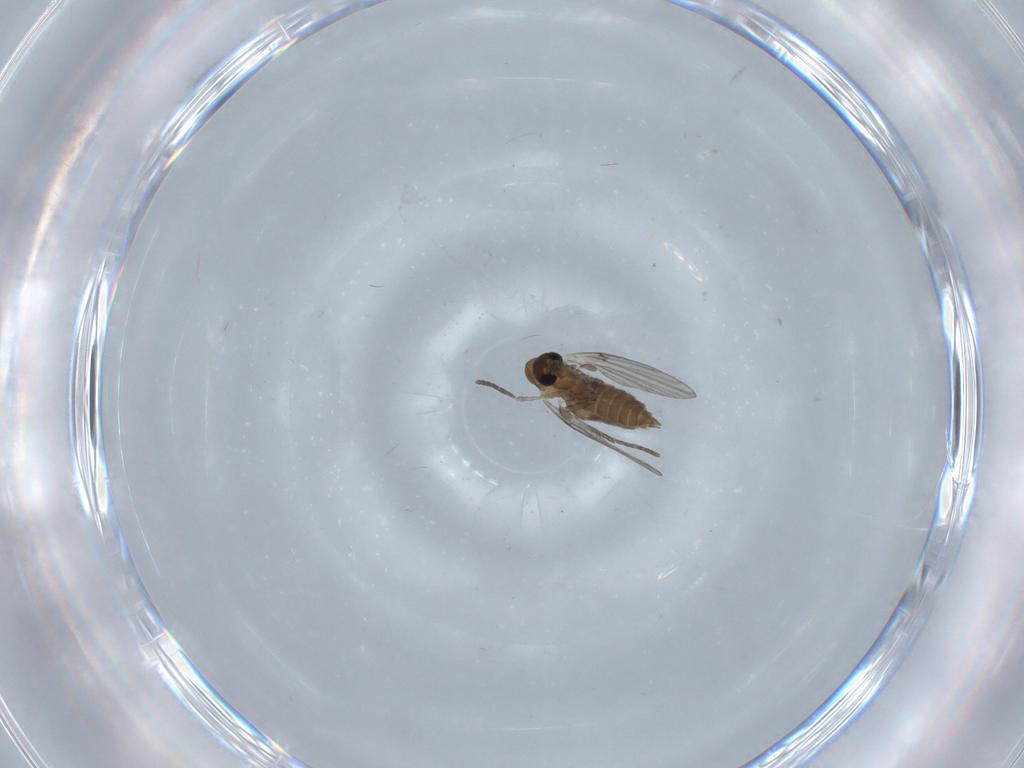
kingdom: Animalia
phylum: Arthropoda
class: Insecta
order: Diptera
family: Psychodidae
